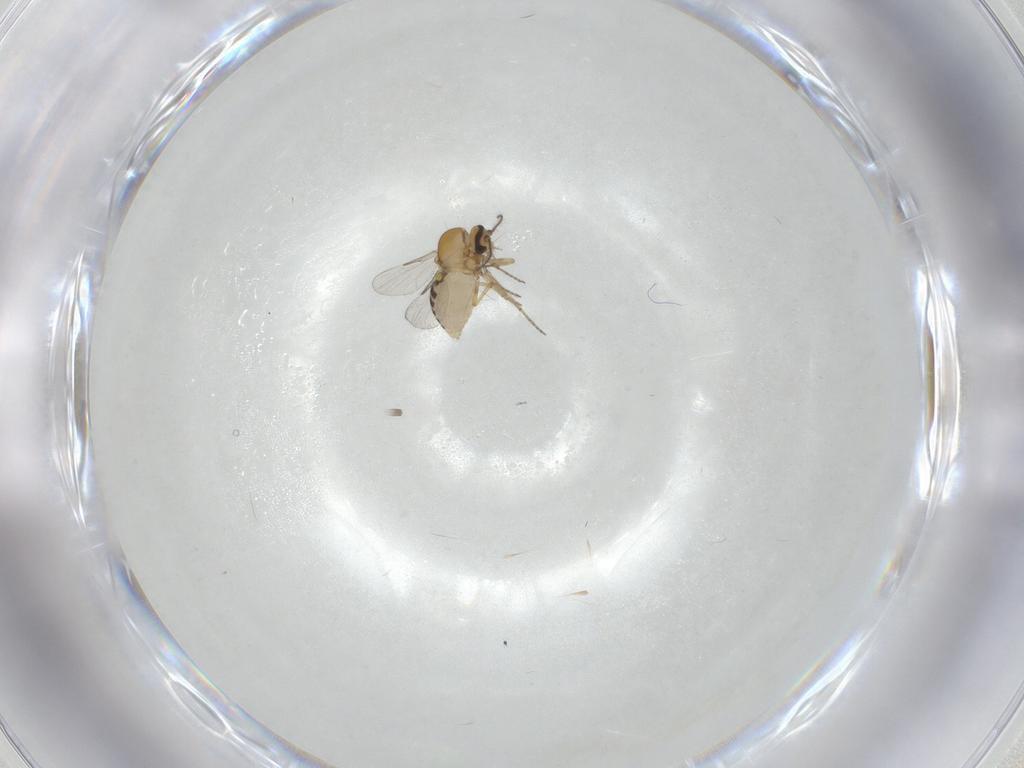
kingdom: Animalia
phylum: Arthropoda
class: Insecta
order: Diptera
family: Ceratopogonidae
